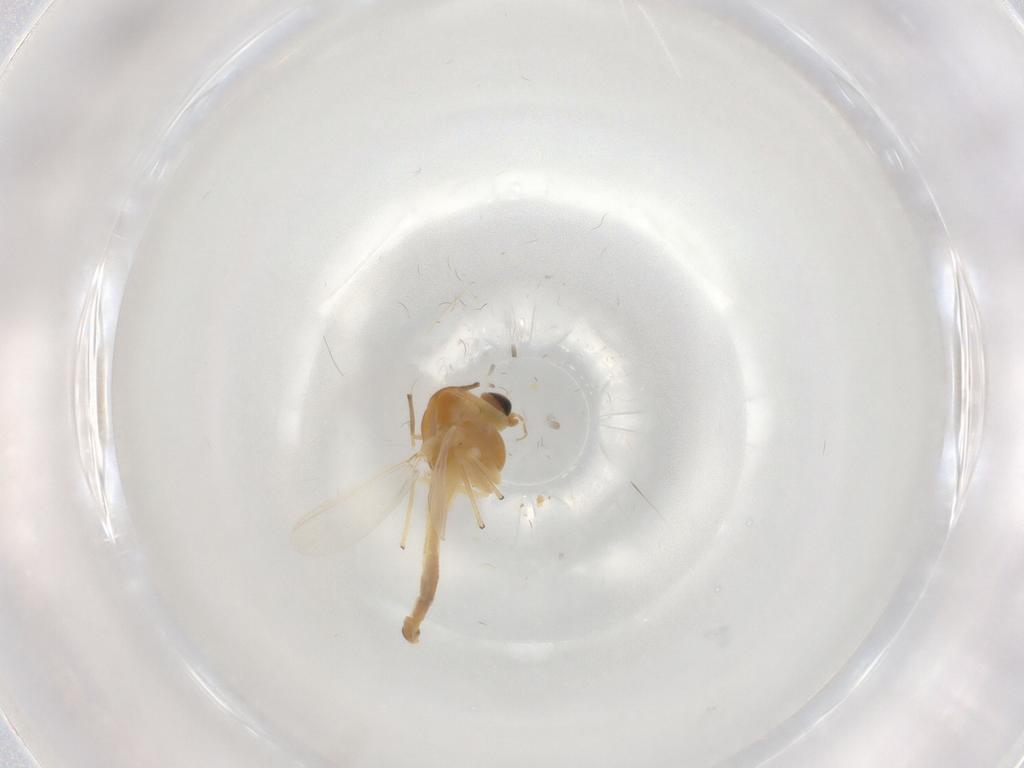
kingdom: Animalia
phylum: Arthropoda
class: Insecta
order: Diptera
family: Chironomidae
